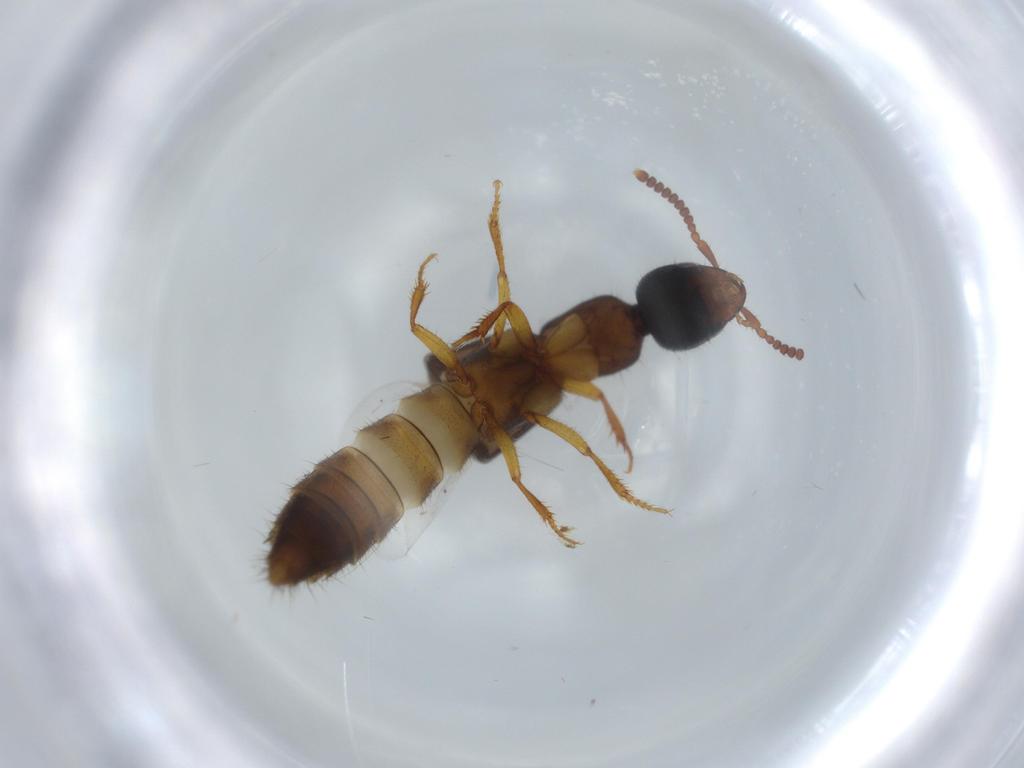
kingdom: Animalia
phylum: Arthropoda
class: Insecta
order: Coleoptera
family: Staphylinidae
